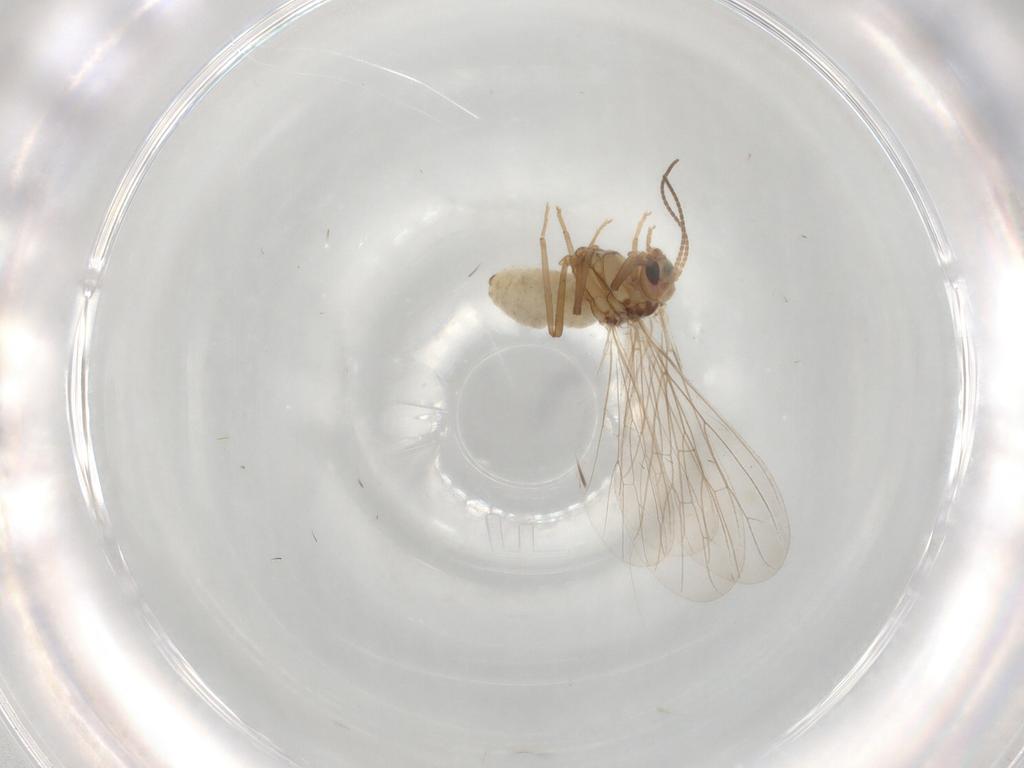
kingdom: Animalia
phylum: Arthropoda
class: Insecta
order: Neuroptera
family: Coniopterygidae
